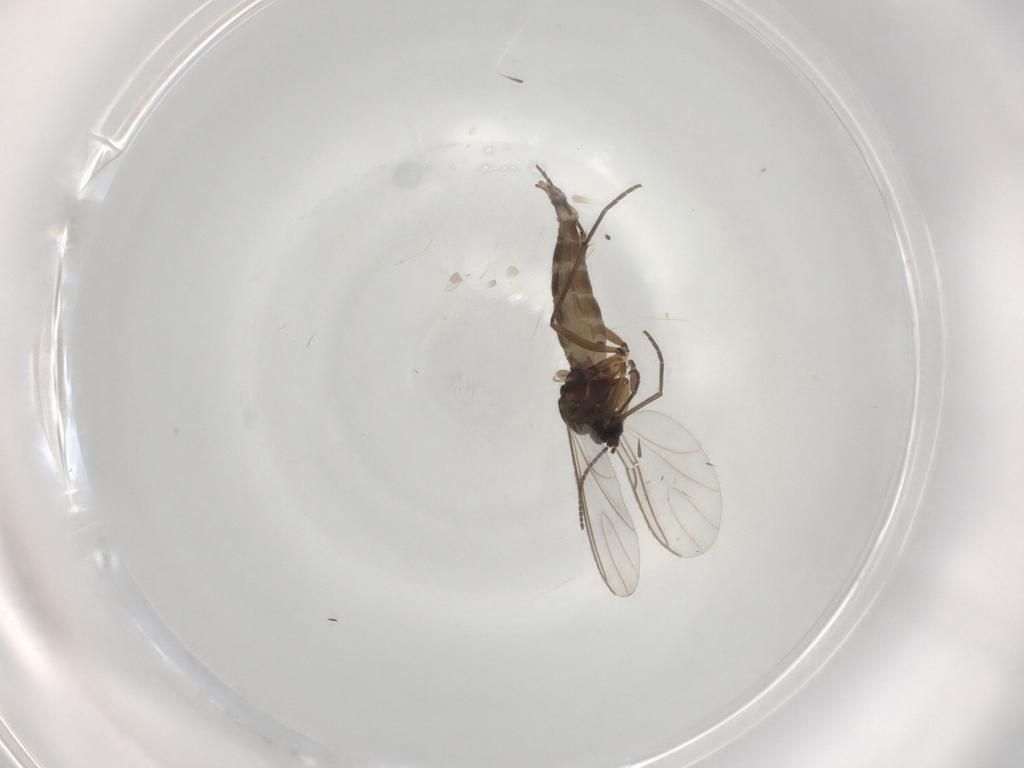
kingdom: Animalia
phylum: Arthropoda
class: Insecta
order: Diptera
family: Sciaridae
